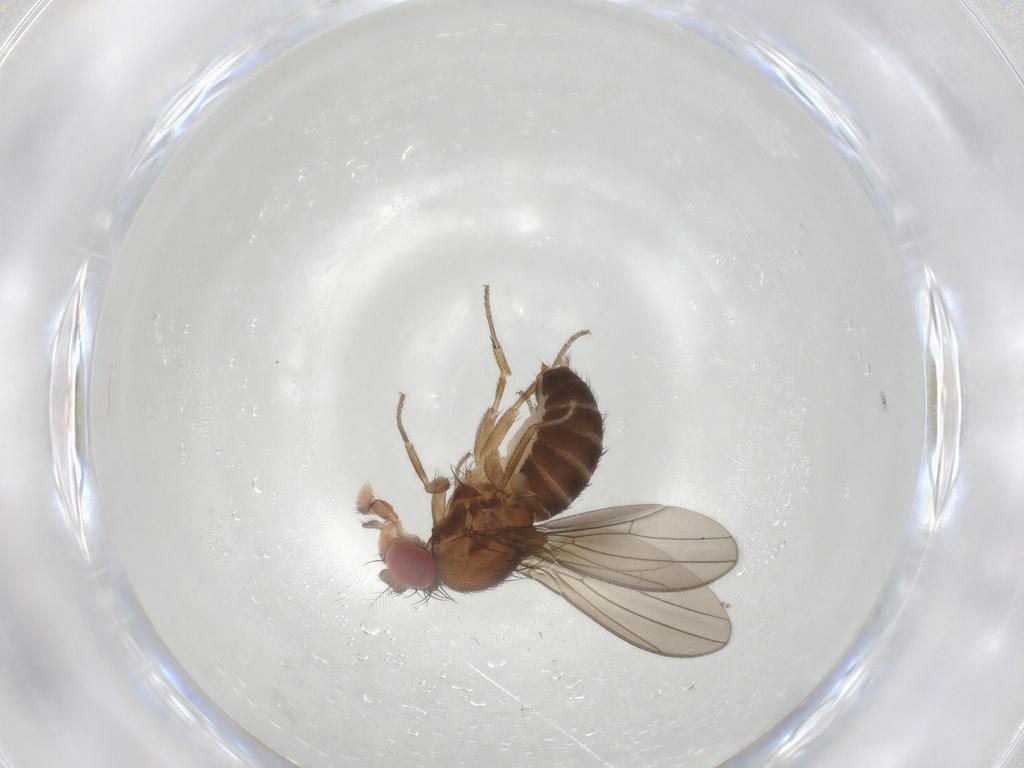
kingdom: Animalia
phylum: Arthropoda
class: Insecta
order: Diptera
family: Drosophilidae
